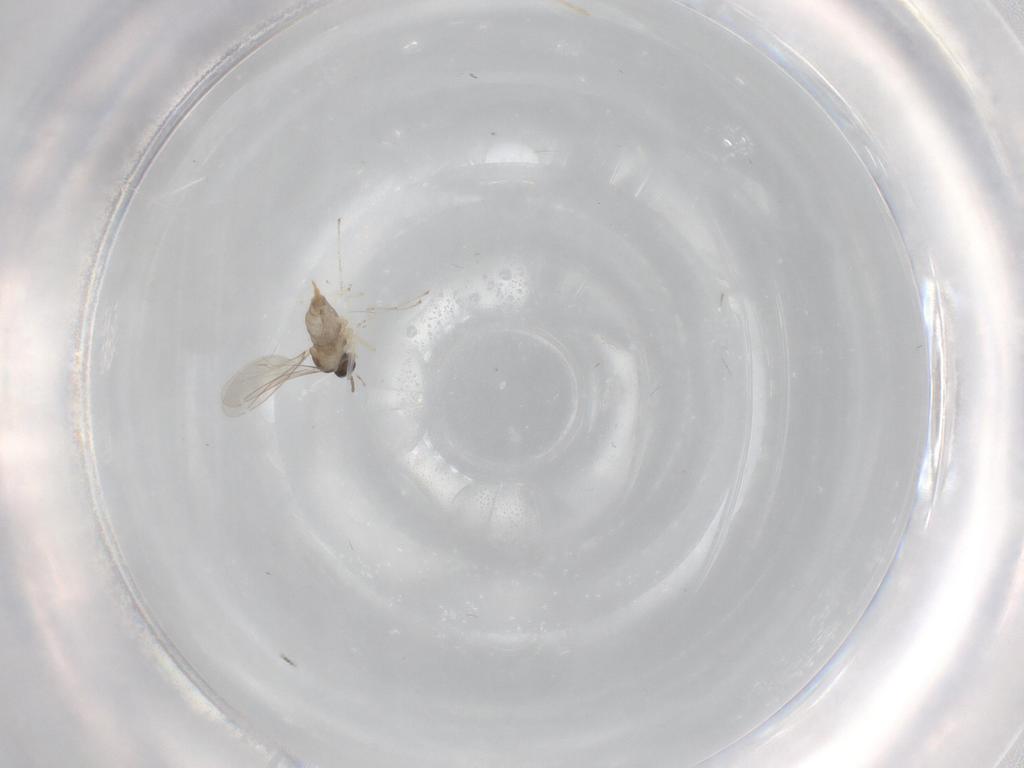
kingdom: Animalia
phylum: Arthropoda
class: Insecta
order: Diptera
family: Cecidomyiidae
